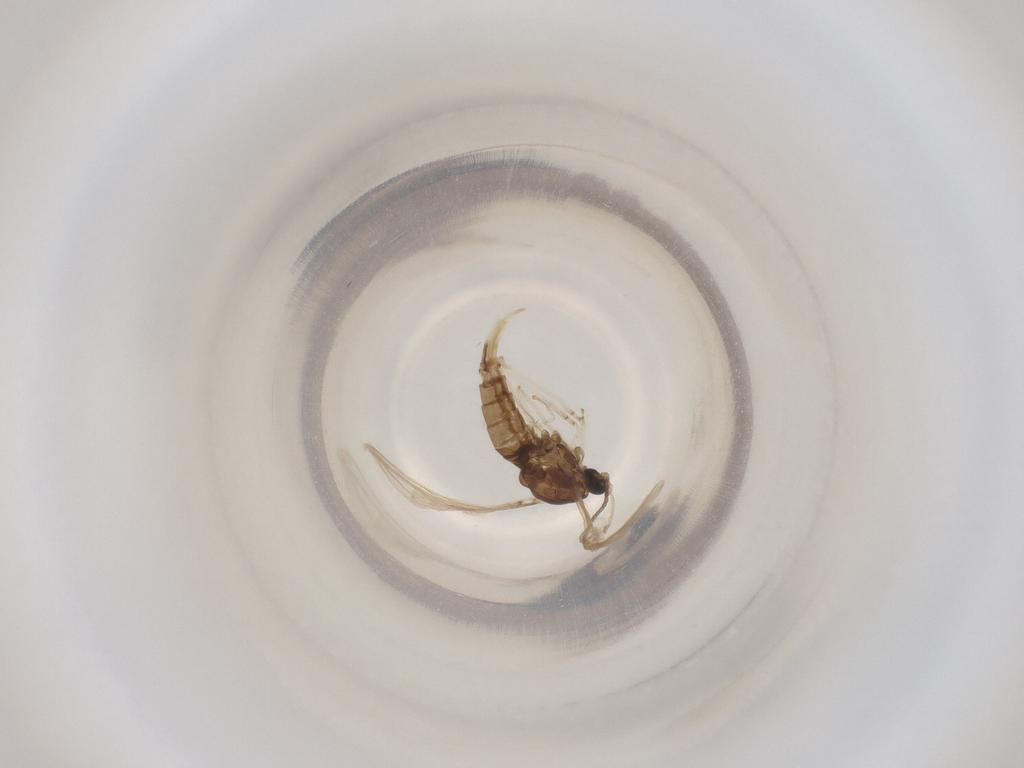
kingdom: Animalia
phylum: Arthropoda
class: Insecta
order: Diptera
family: Cecidomyiidae
